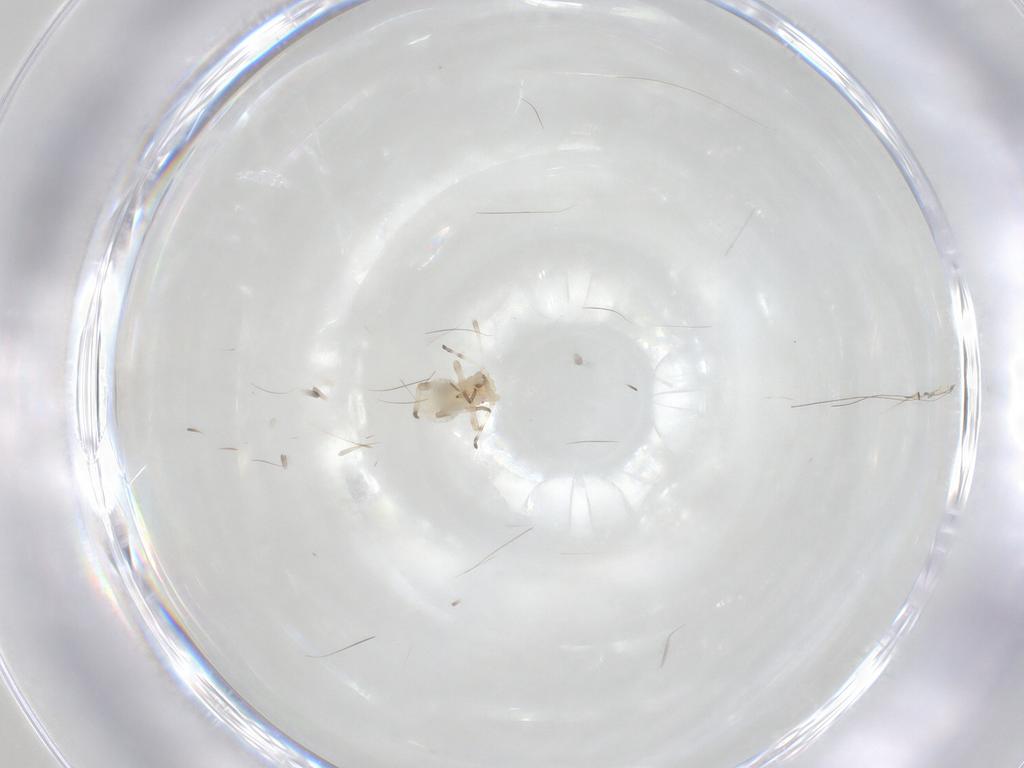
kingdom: Animalia
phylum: Arthropoda
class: Insecta
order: Hemiptera
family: Aphididae
